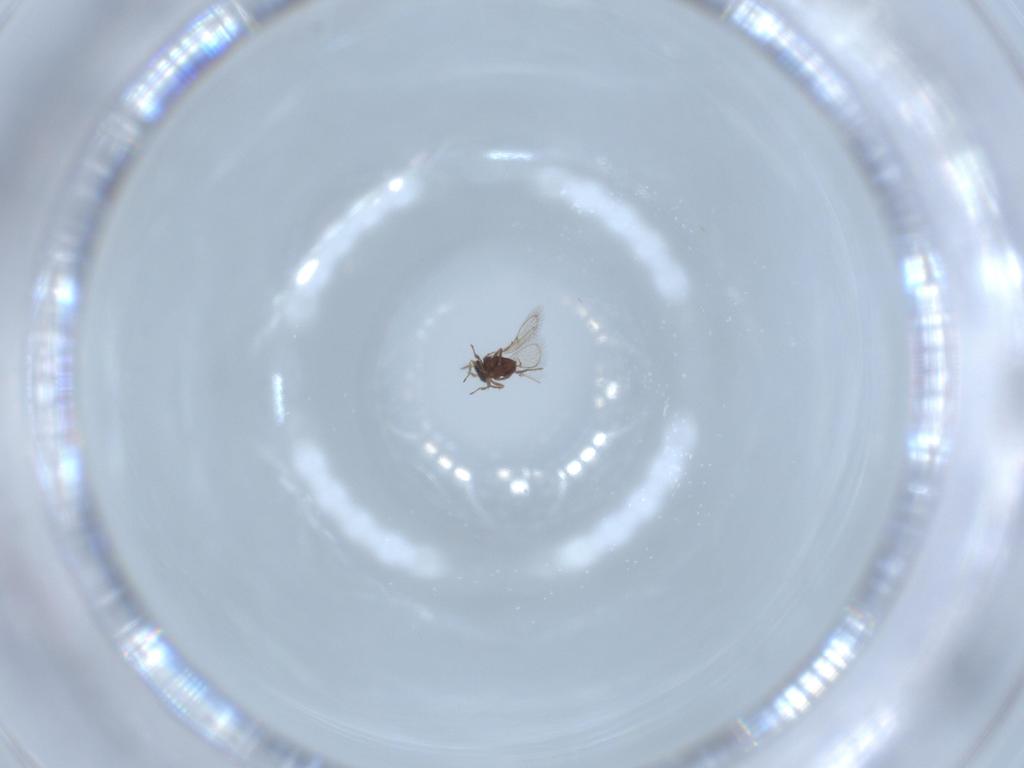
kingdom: Animalia
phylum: Arthropoda
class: Insecta
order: Hymenoptera
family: Trichogrammatidae
